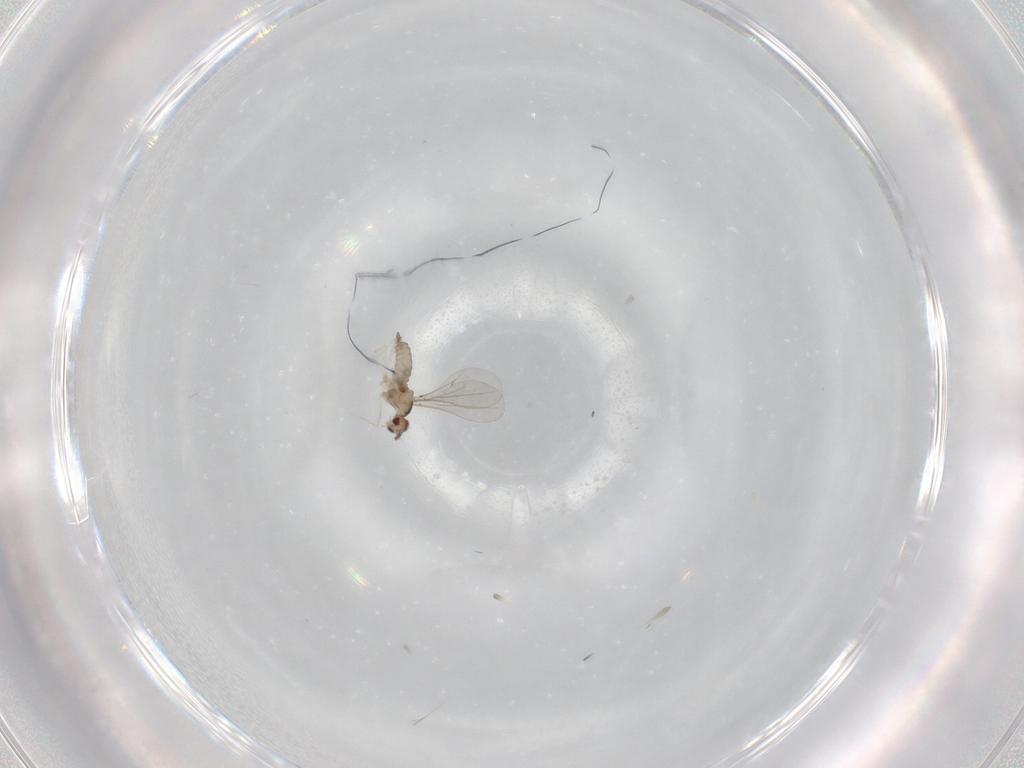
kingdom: Animalia
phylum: Arthropoda
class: Insecta
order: Diptera
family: Cecidomyiidae
